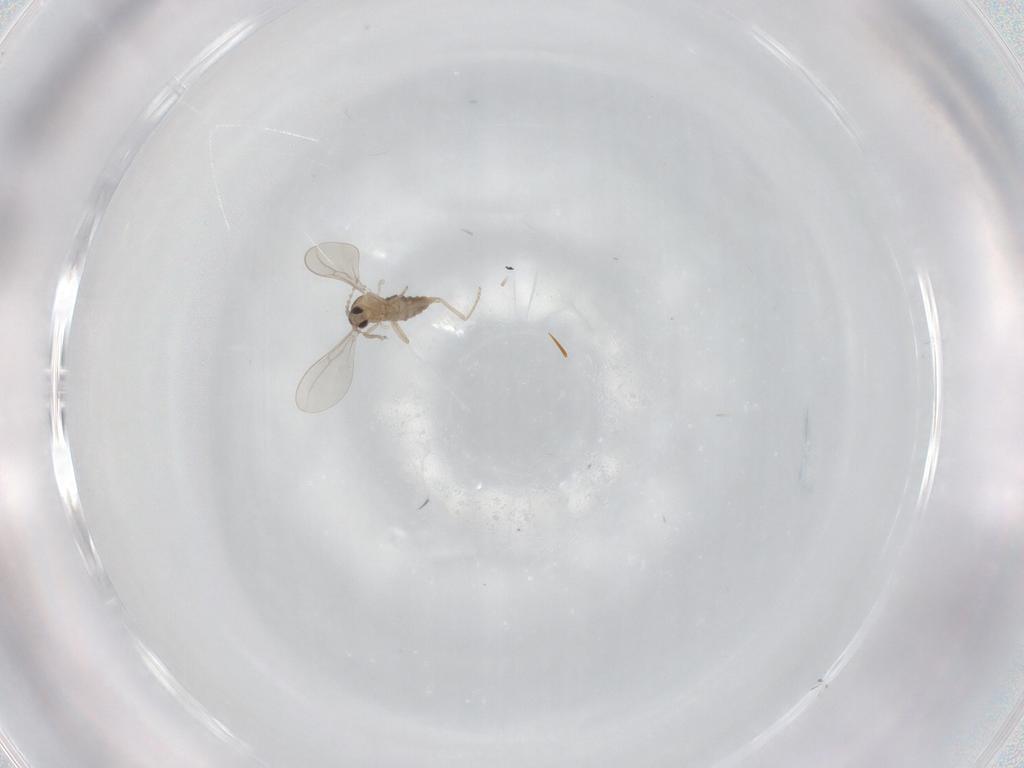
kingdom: Animalia
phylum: Arthropoda
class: Insecta
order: Diptera
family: Cecidomyiidae
